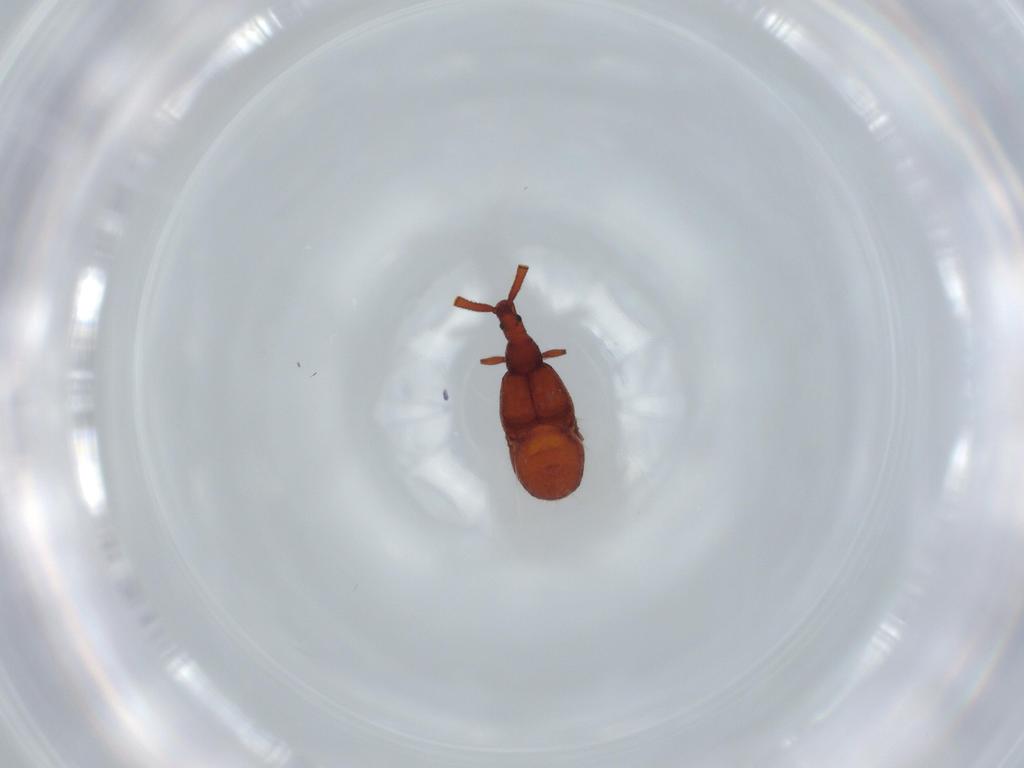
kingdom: Animalia
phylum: Arthropoda
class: Insecta
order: Coleoptera
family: Staphylinidae
